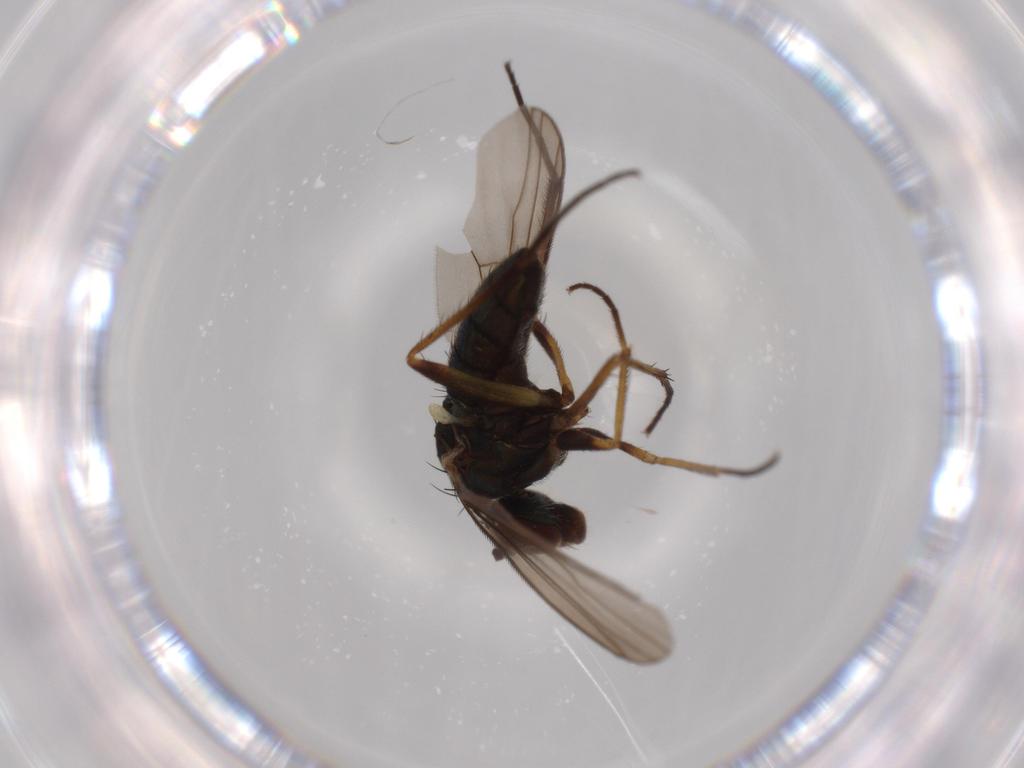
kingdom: Animalia
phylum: Arthropoda
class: Insecta
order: Diptera
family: Dolichopodidae
